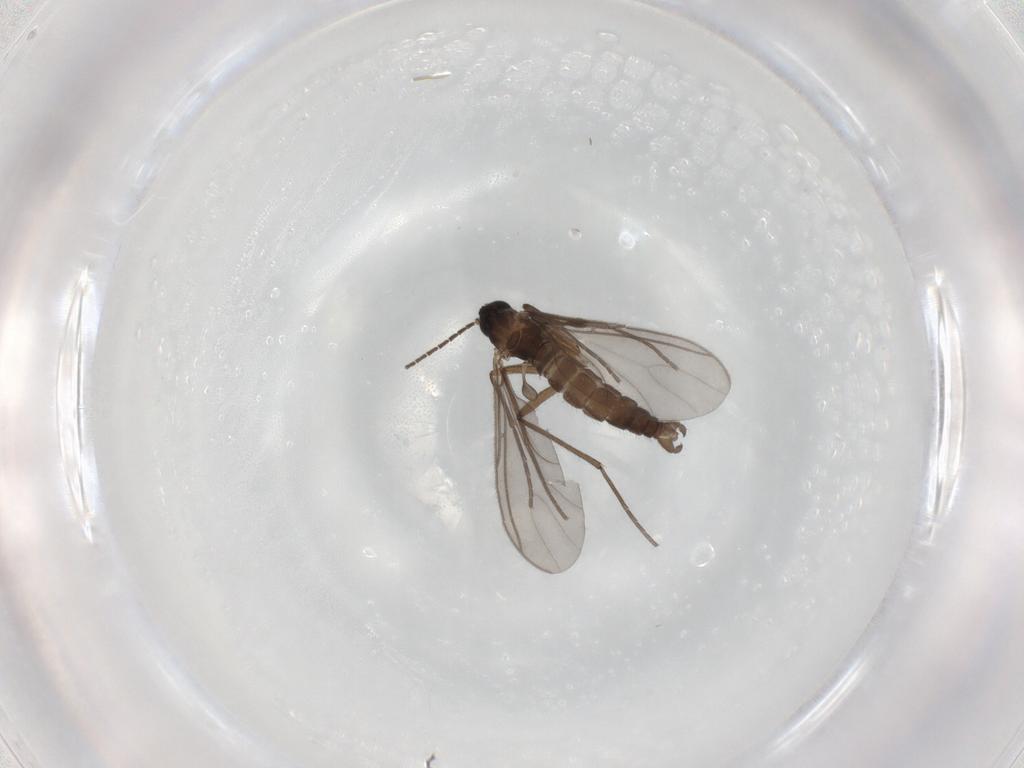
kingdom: Animalia
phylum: Arthropoda
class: Insecta
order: Diptera
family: Sciaridae
